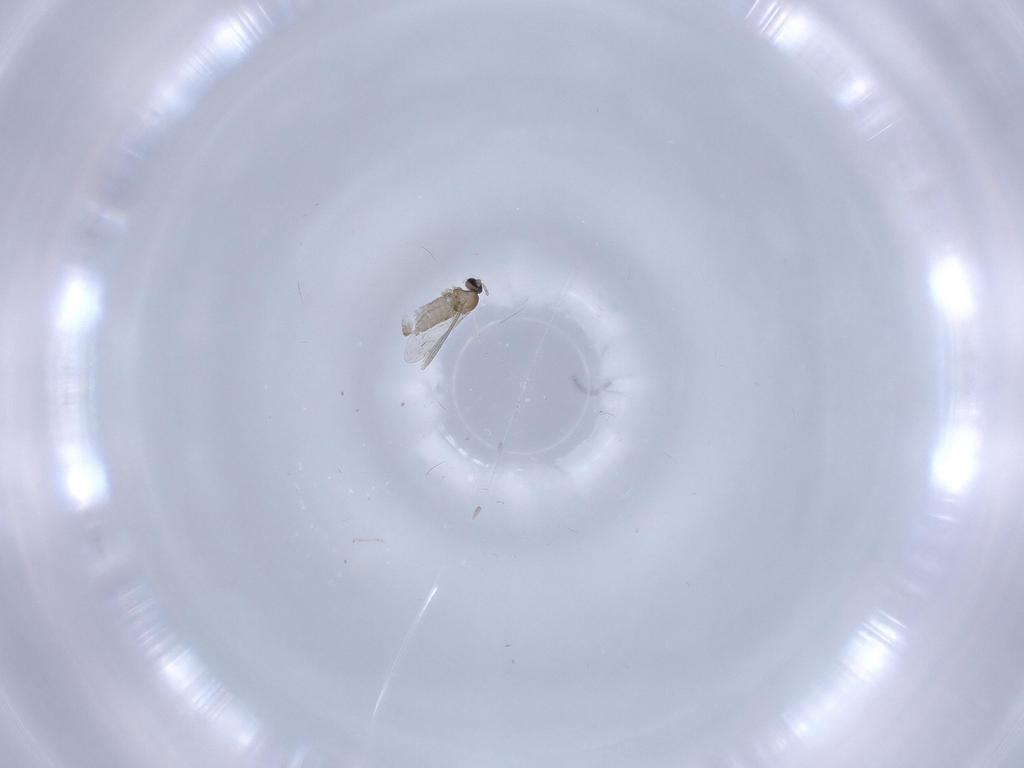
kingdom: Animalia
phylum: Arthropoda
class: Insecta
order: Diptera
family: Cecidomyiidae
